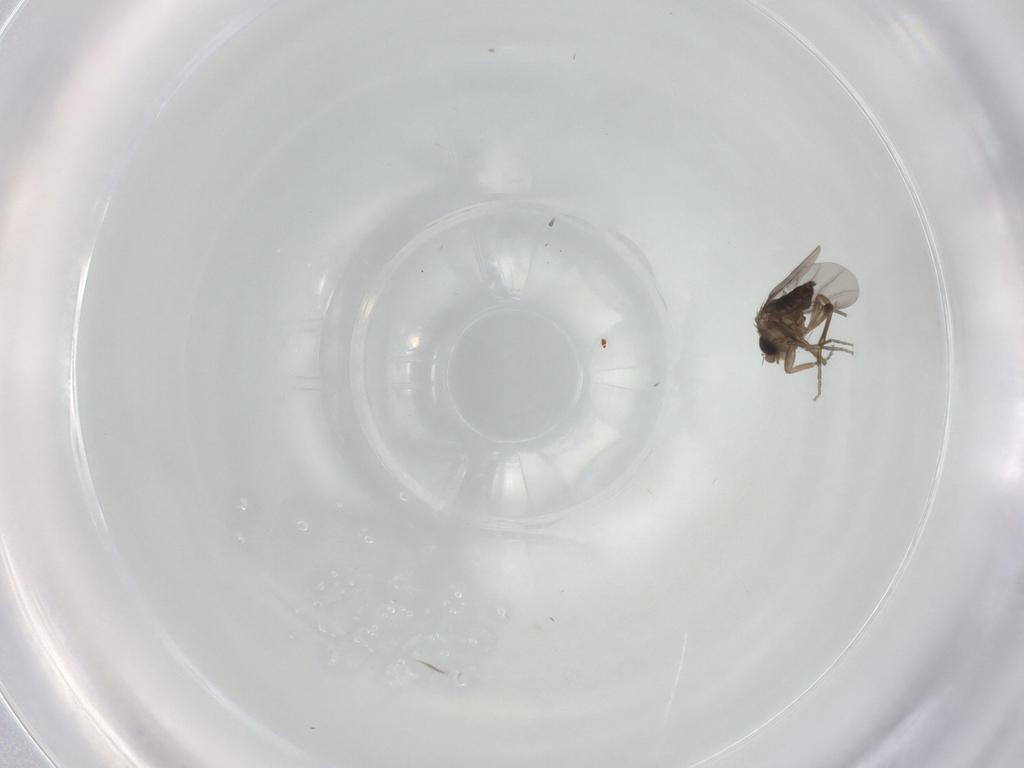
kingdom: Animalia
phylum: Arthropoda
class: Insecta
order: Diptera
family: Phoridae
